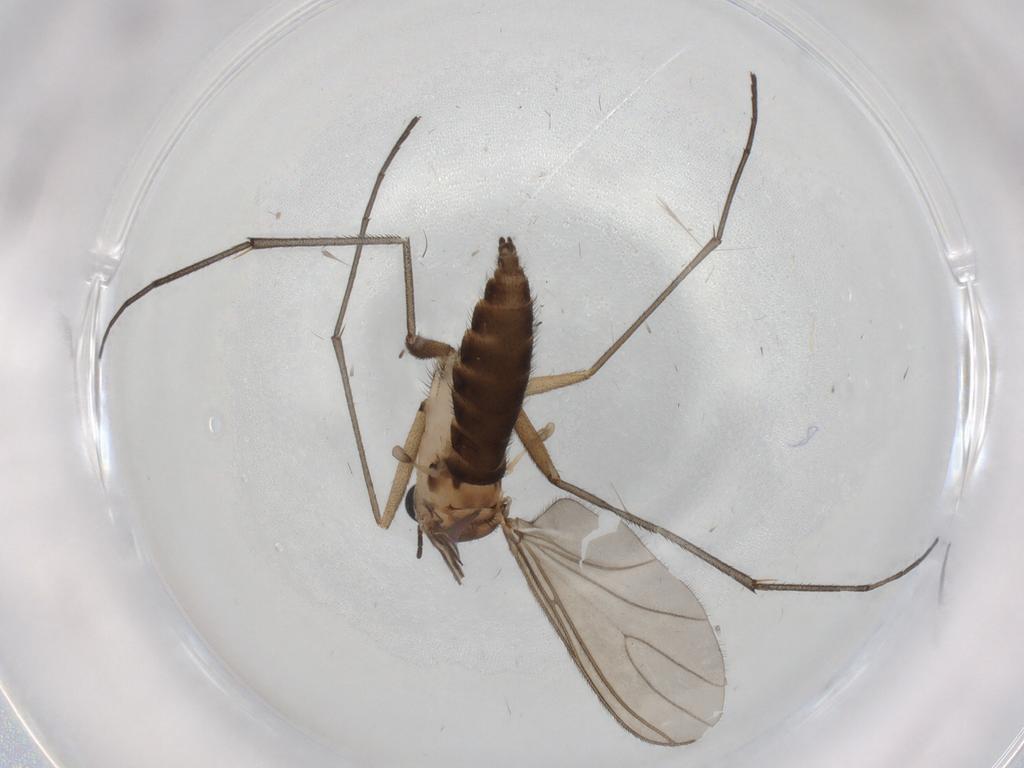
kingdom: Animalia
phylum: Arthropoda
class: Insecta
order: Diptera
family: Sciaridae
